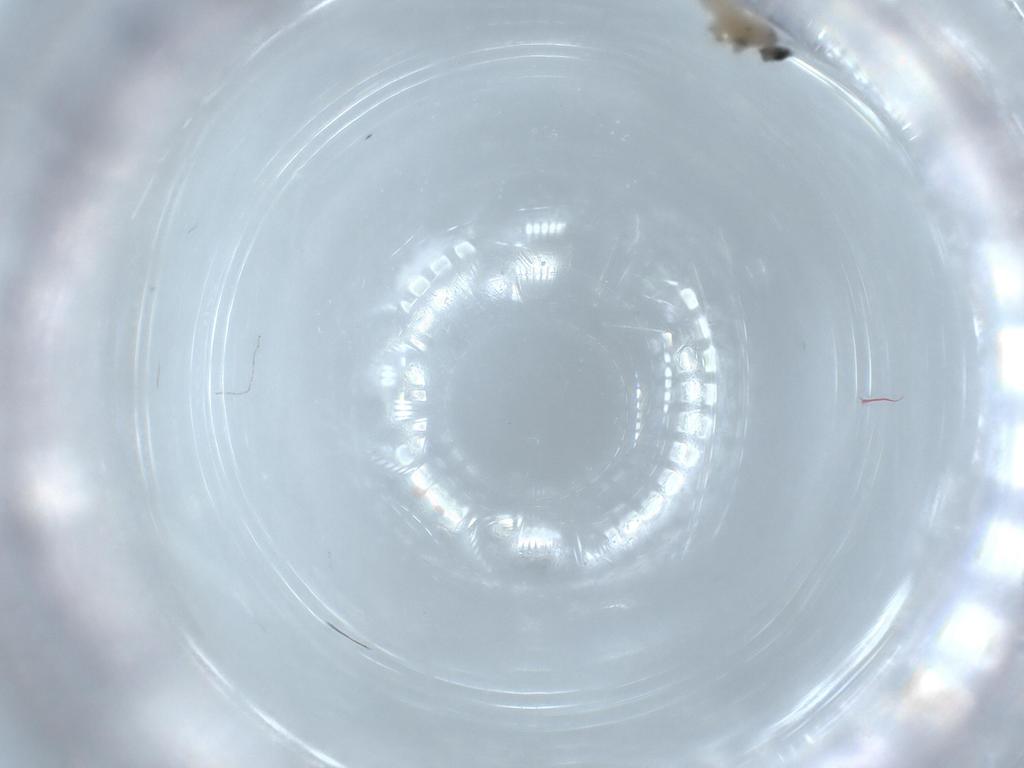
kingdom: Animalia
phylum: Arthropoda
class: Insecta
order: Diptera
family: Cecidomyiidae
